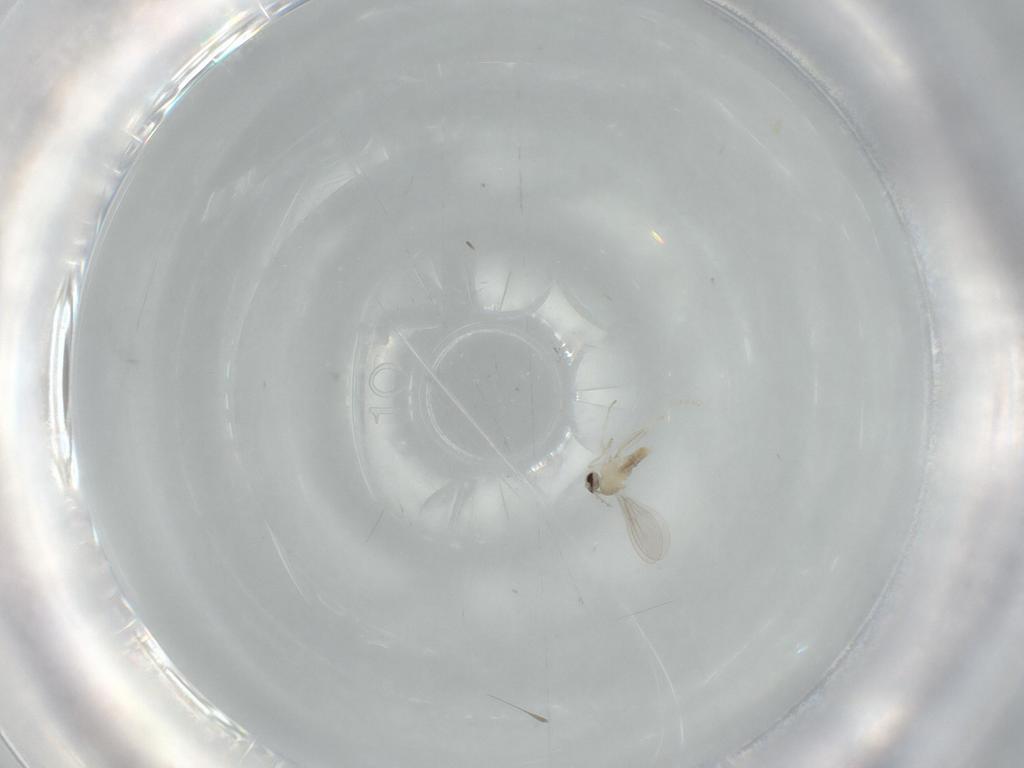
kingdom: Animalia
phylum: Arthropoda
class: Insecta
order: Diptera
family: Anthomyiidae
